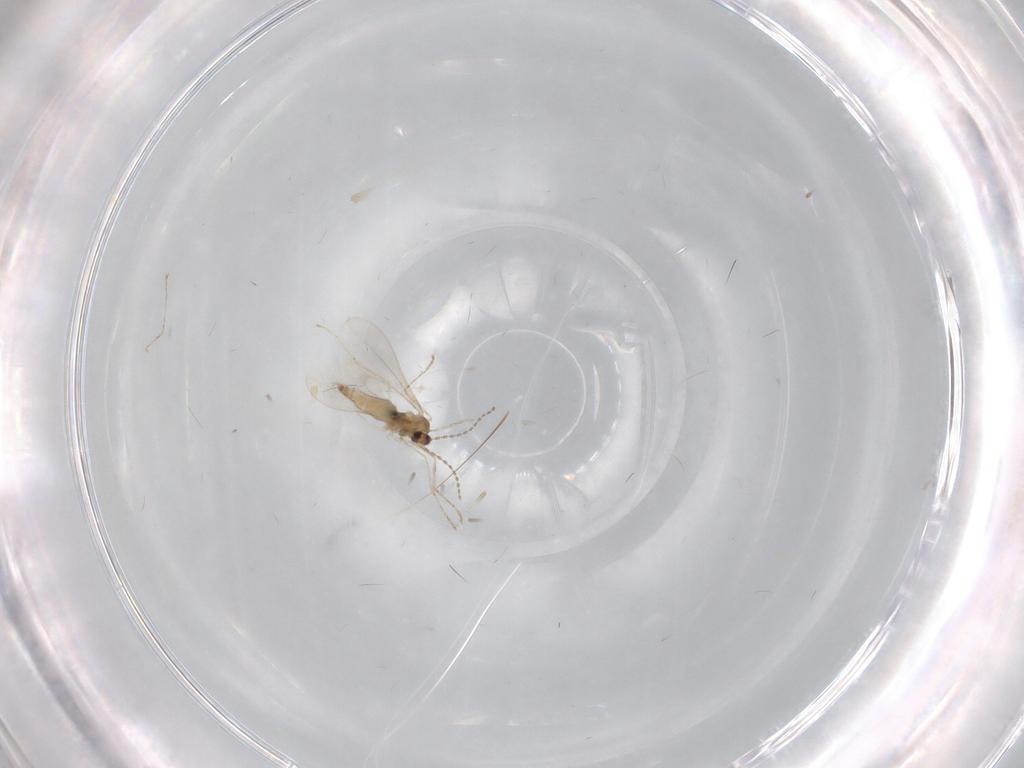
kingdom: Animalia
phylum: Arthropoda
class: Insecta
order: Diptera
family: Cecidomyiidae
